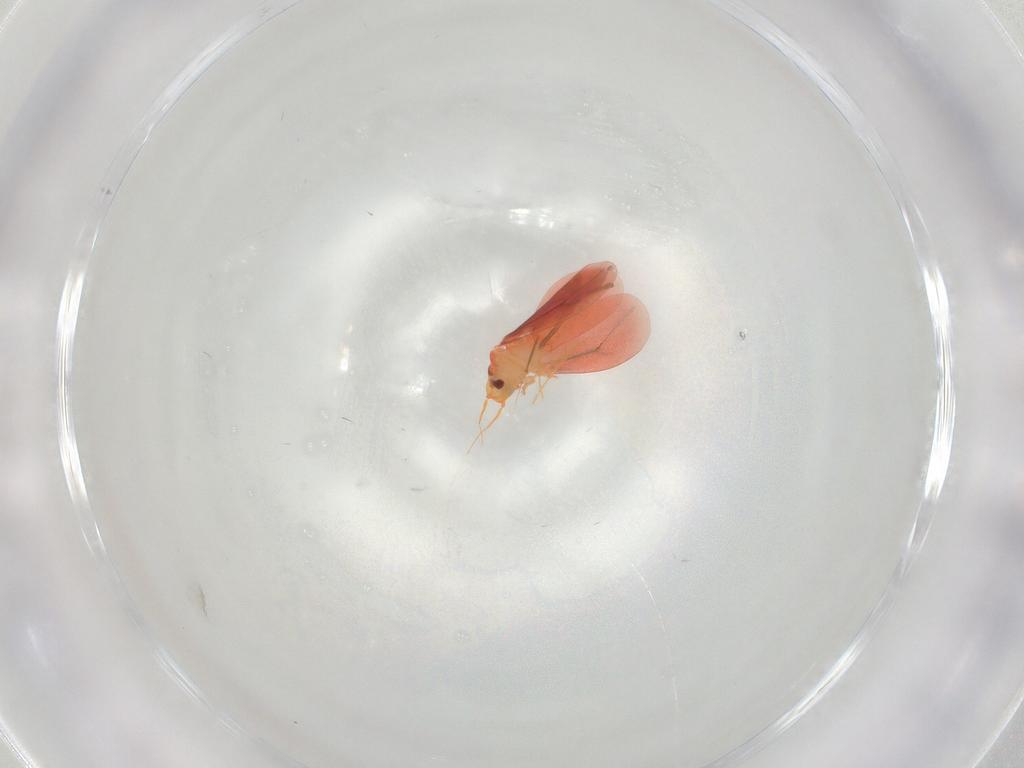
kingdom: Animalia
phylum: Arthropoda
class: Insecta
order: Hemiptera
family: Aleyrodidae
